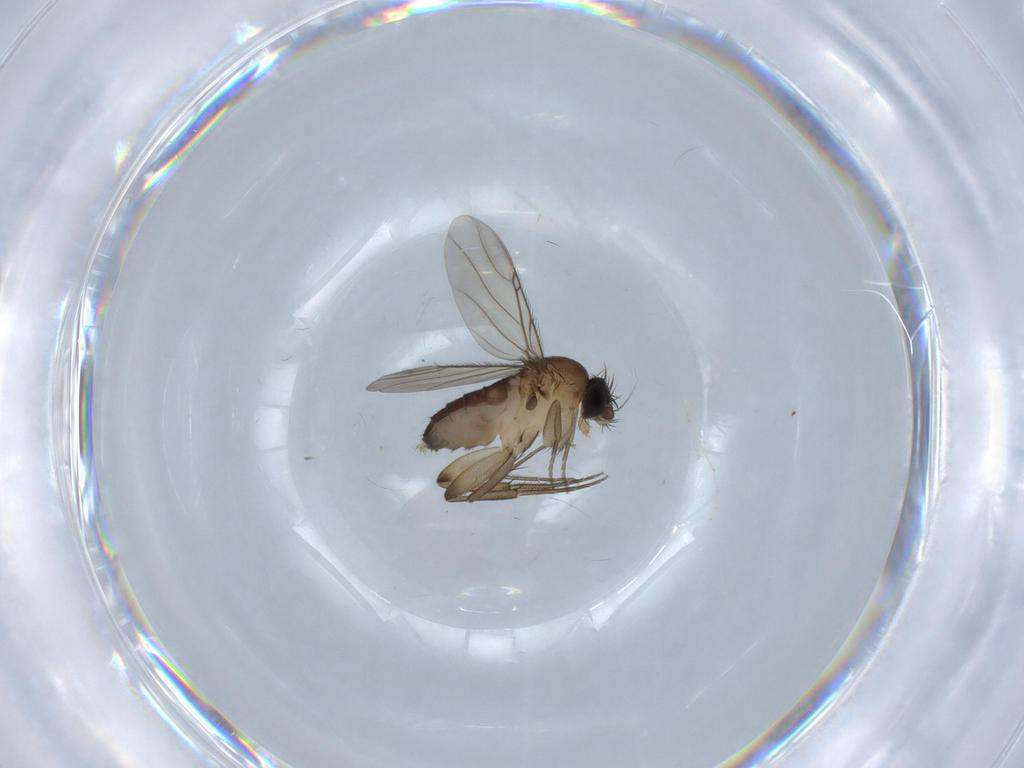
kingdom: Animalia
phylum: Arthropoda
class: Insecta
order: Diptera
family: Phoridae
